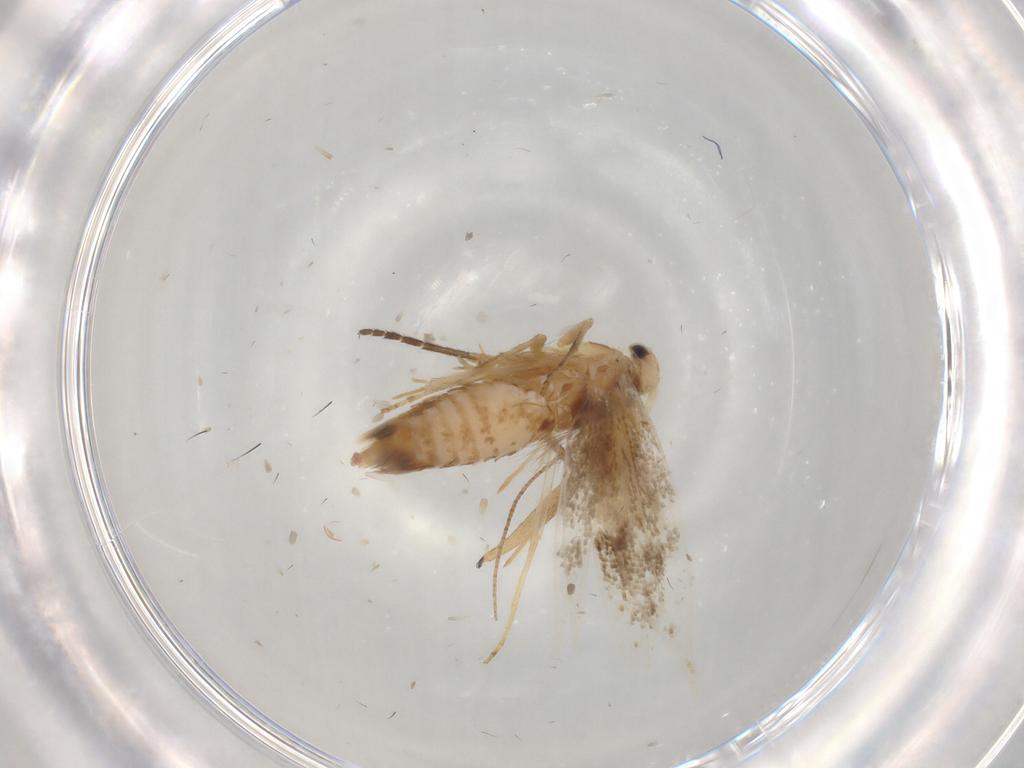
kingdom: Animalia
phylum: Arthropoda
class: Insecta
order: Lepidoptera
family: Bucculatricidae
